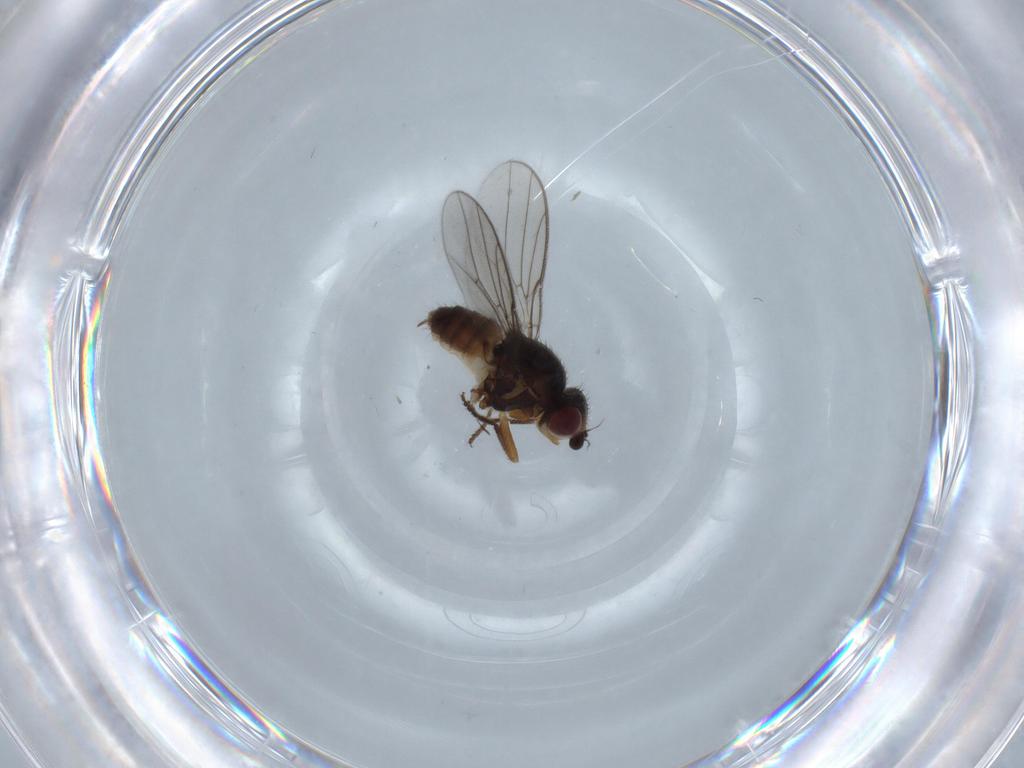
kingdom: Animalia
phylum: Arthropoda
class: Insecta
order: Diptera
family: Chloropidae
